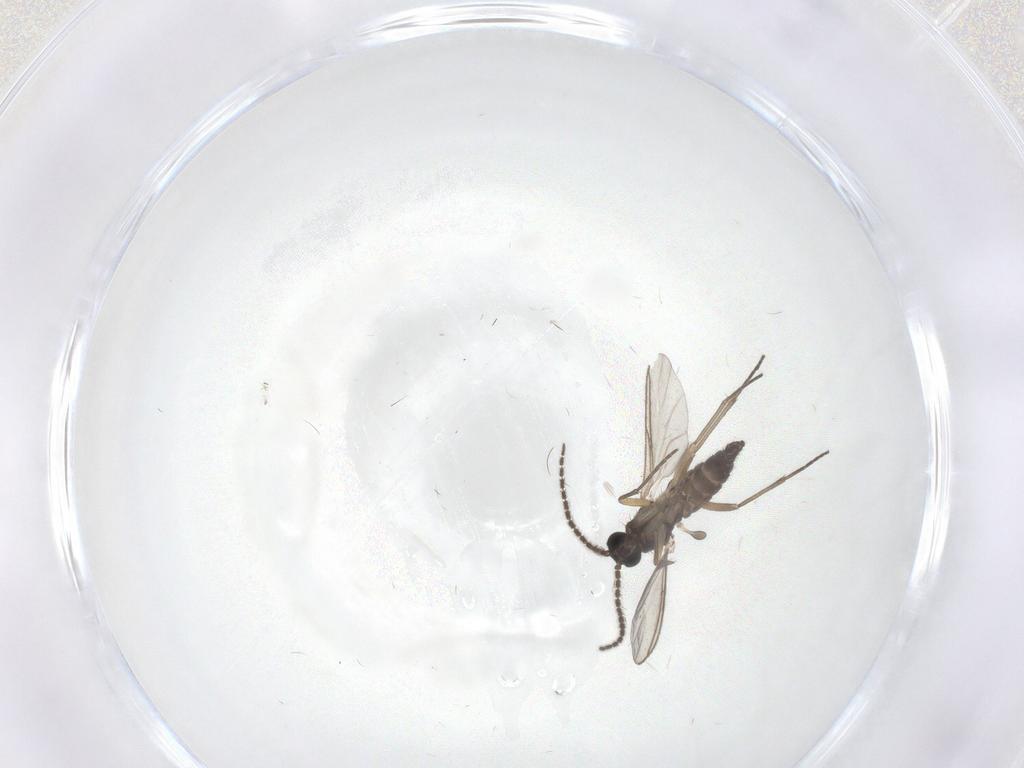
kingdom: Animalia
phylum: Arthropoda
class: Insecta
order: Diptera
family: Sciaridae
